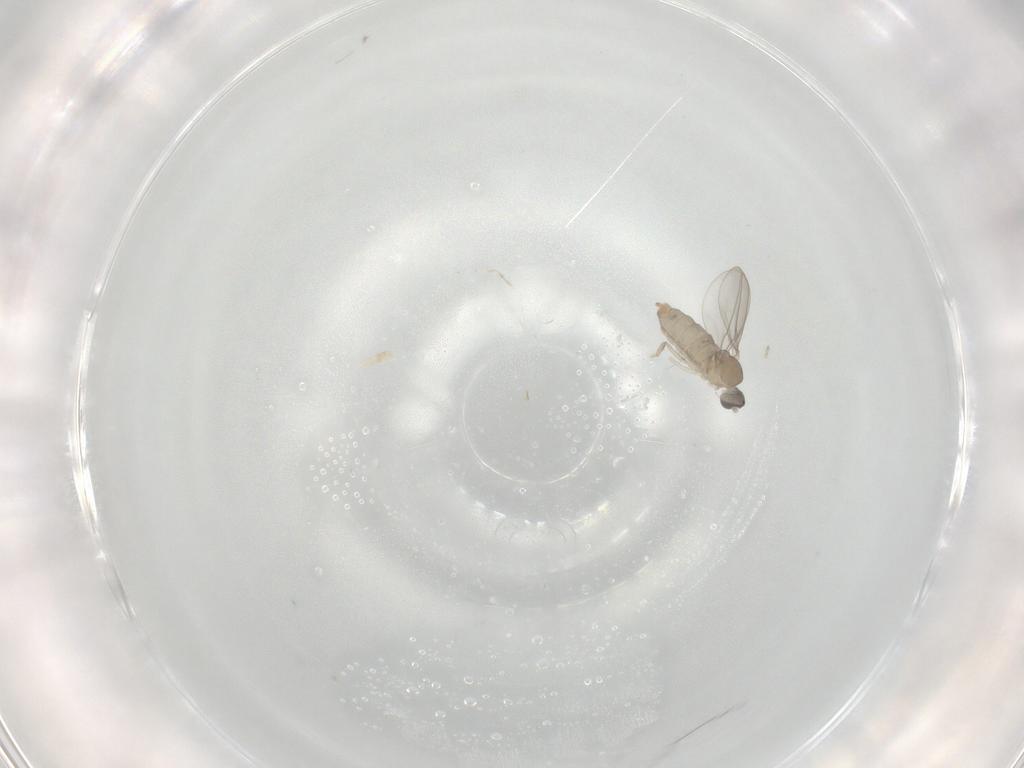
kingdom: Animalia
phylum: Arthropoda
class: Insecta
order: Diptera
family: Cecidomyiidae
